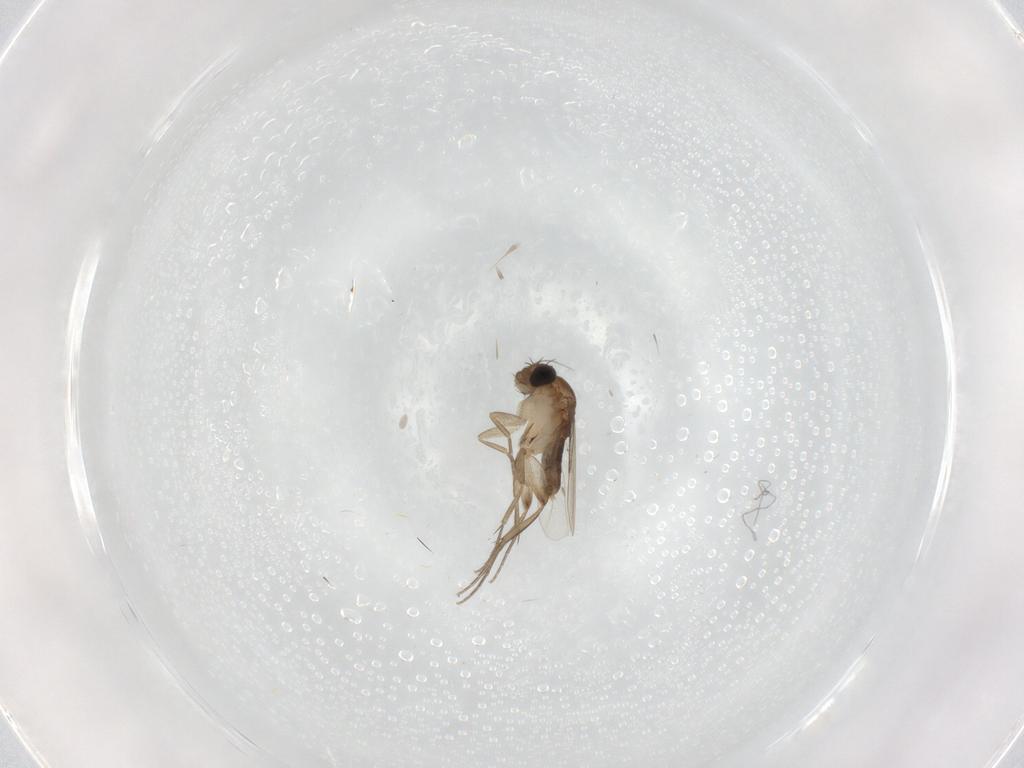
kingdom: Animalia
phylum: Arthropoda
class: Insecta
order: Diptera
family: Phoridae
